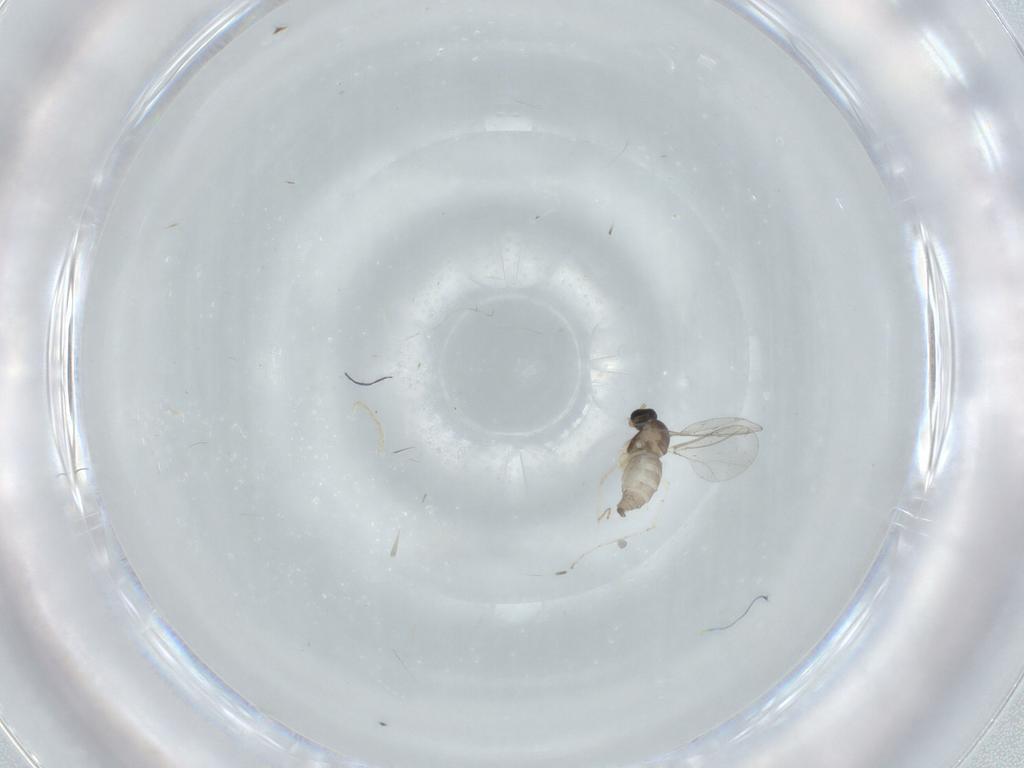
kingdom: Animalia
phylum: Arthropoda
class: Insecta
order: Diptera
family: Cecidomyiidae
